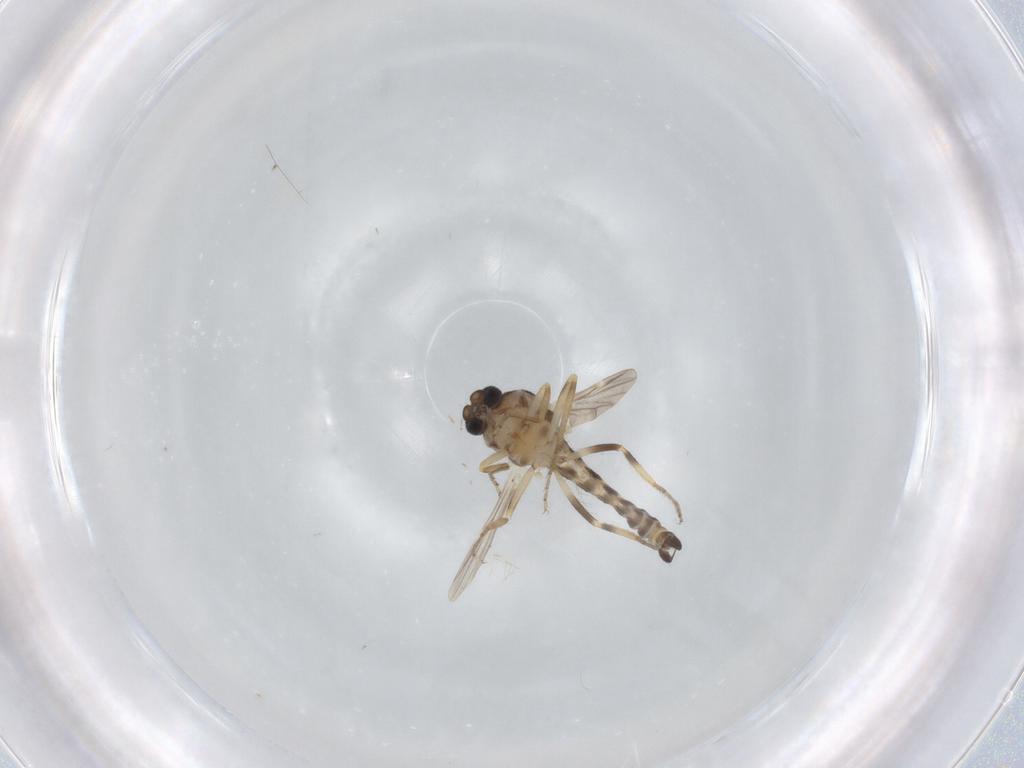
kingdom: Animalia
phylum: Arthropoda
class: Insecta
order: Diptera
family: Ceratopogonidae
